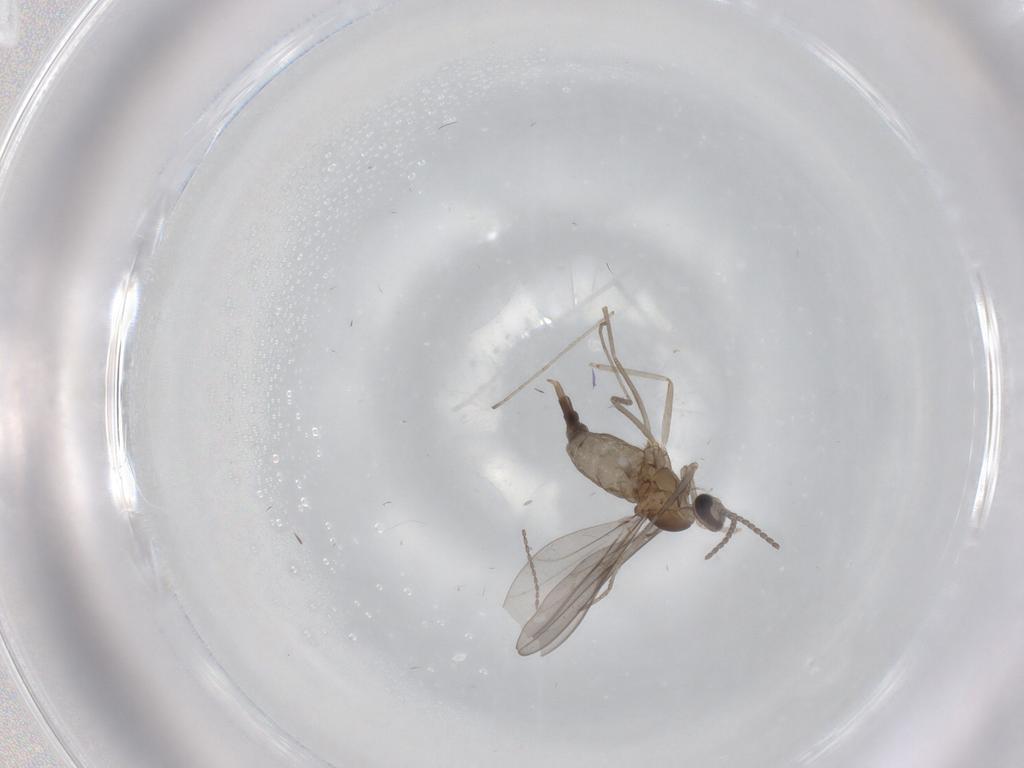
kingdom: Animalia
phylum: Arthropoda
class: Insecta
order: Diptera
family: Cecidomyiidae
